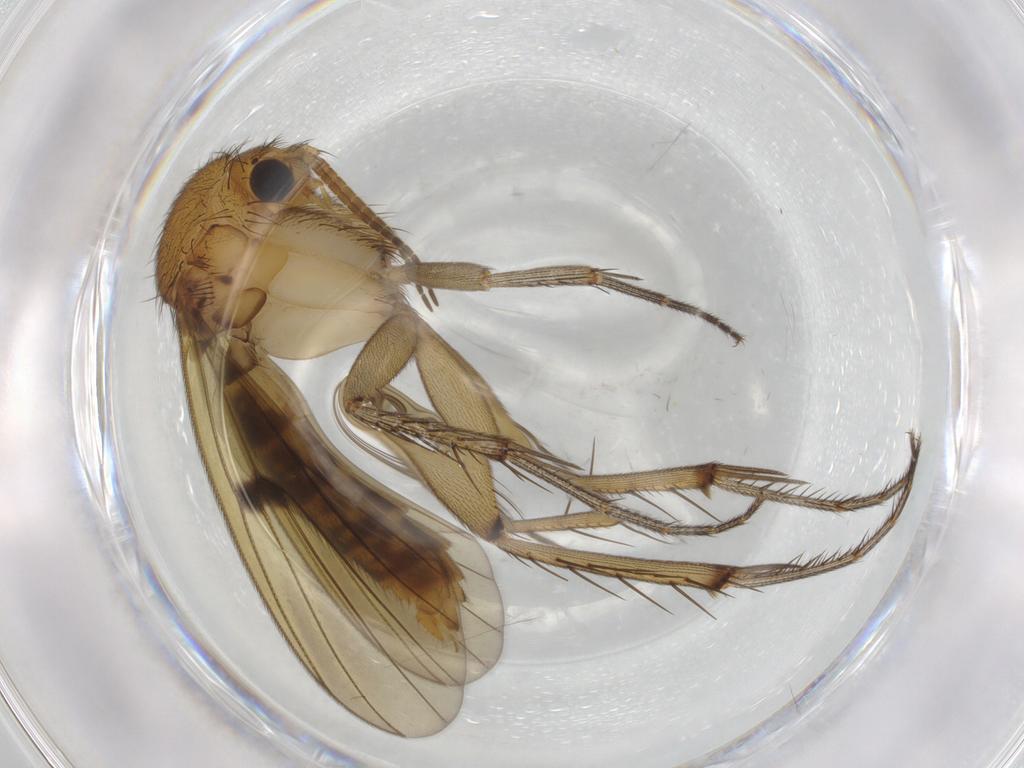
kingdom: Animalia
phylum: Arthropoda
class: Insecta
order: Diptera
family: Mycetophilidae
